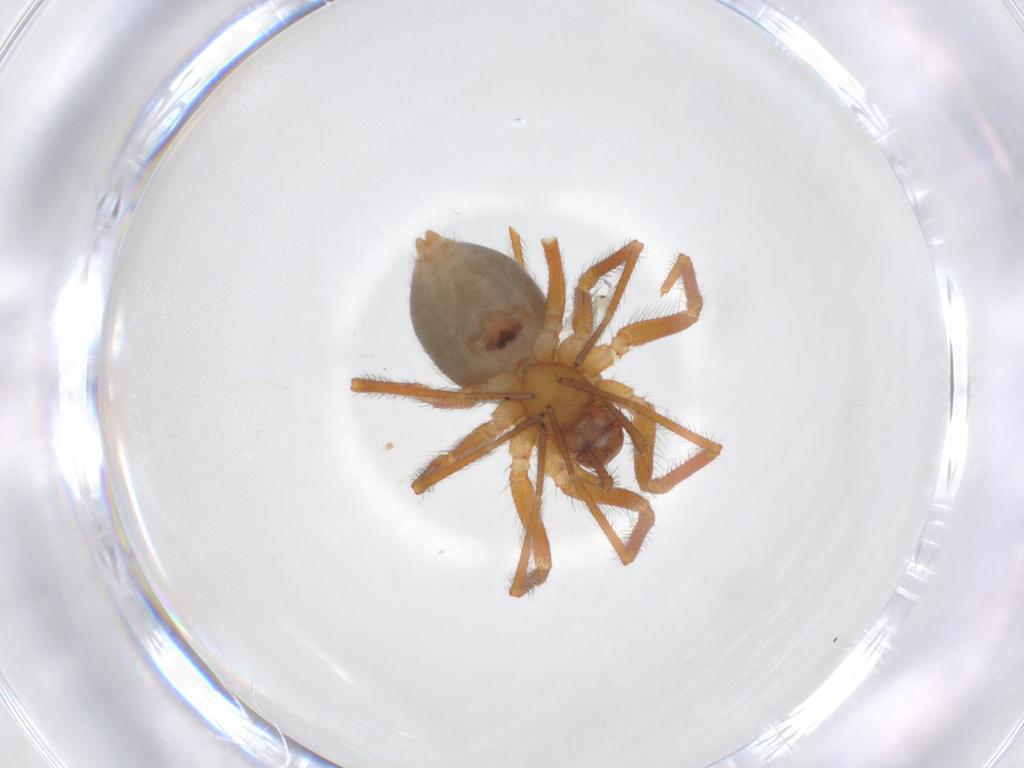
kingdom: Animalia
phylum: Arthropoda
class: Arachnida
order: Araneae
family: Linyphiidae
